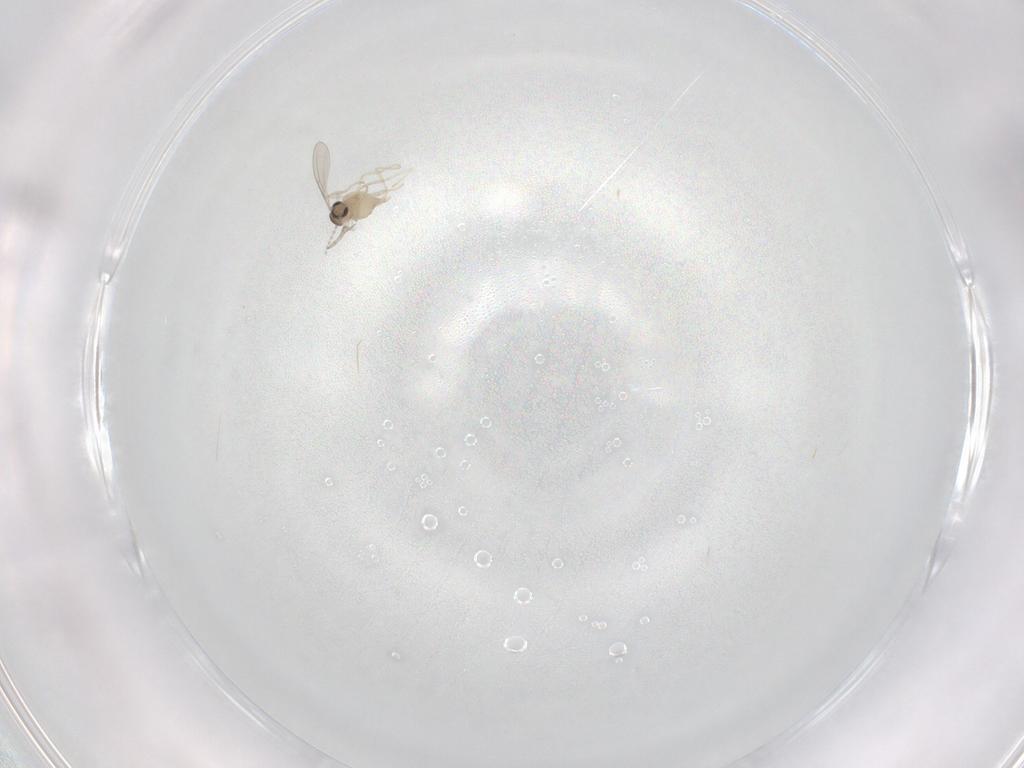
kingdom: Animalia
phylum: Arthropoda
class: Insecta
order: Diptera
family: Cecidomyiidae
